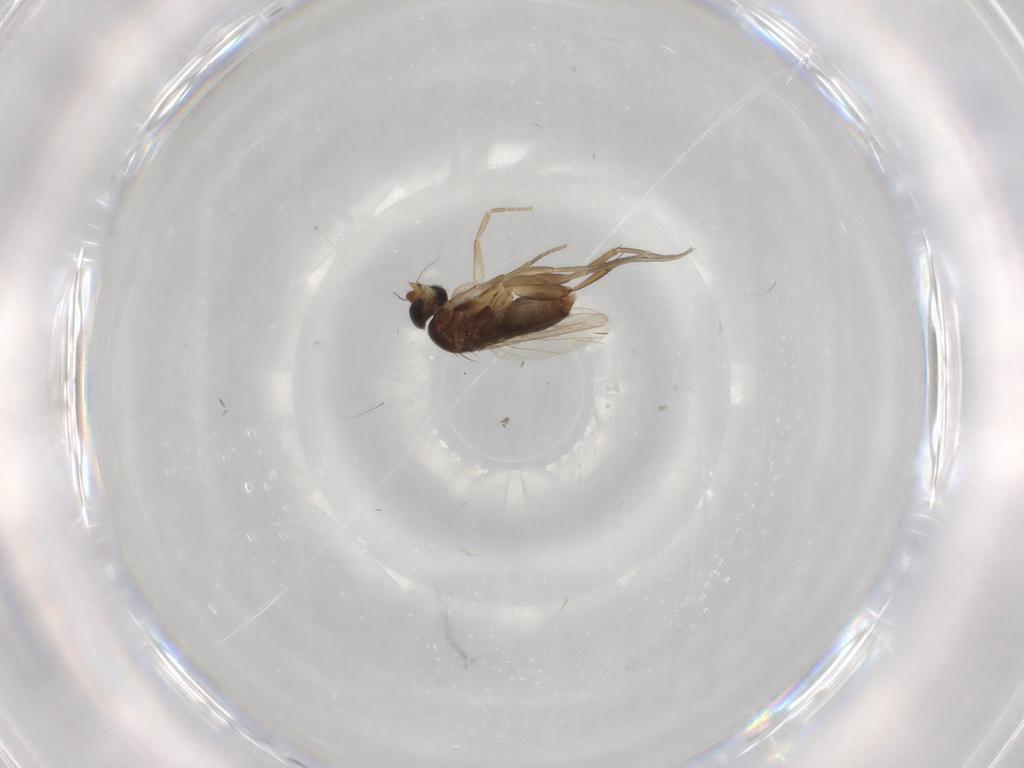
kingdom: Animalia
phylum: Arthropoda
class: Insecta
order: Diptera
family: Phoridae
